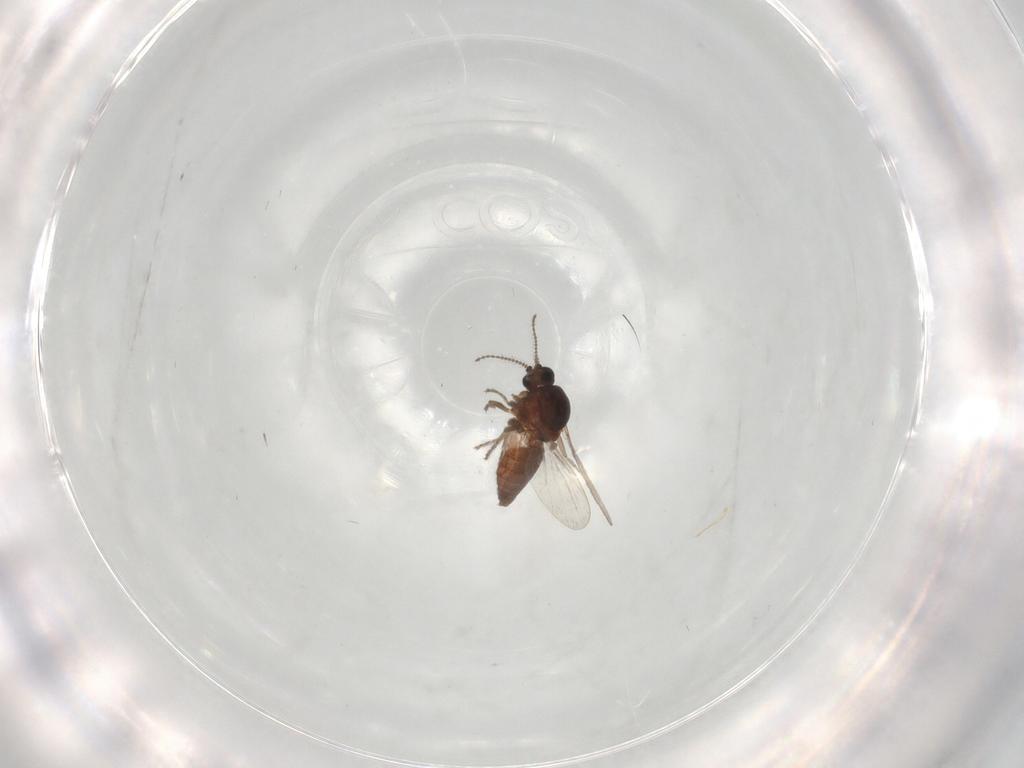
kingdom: Animalia
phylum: Arthropoda
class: Insecta
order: Diptera
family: Ceratopogonidae
